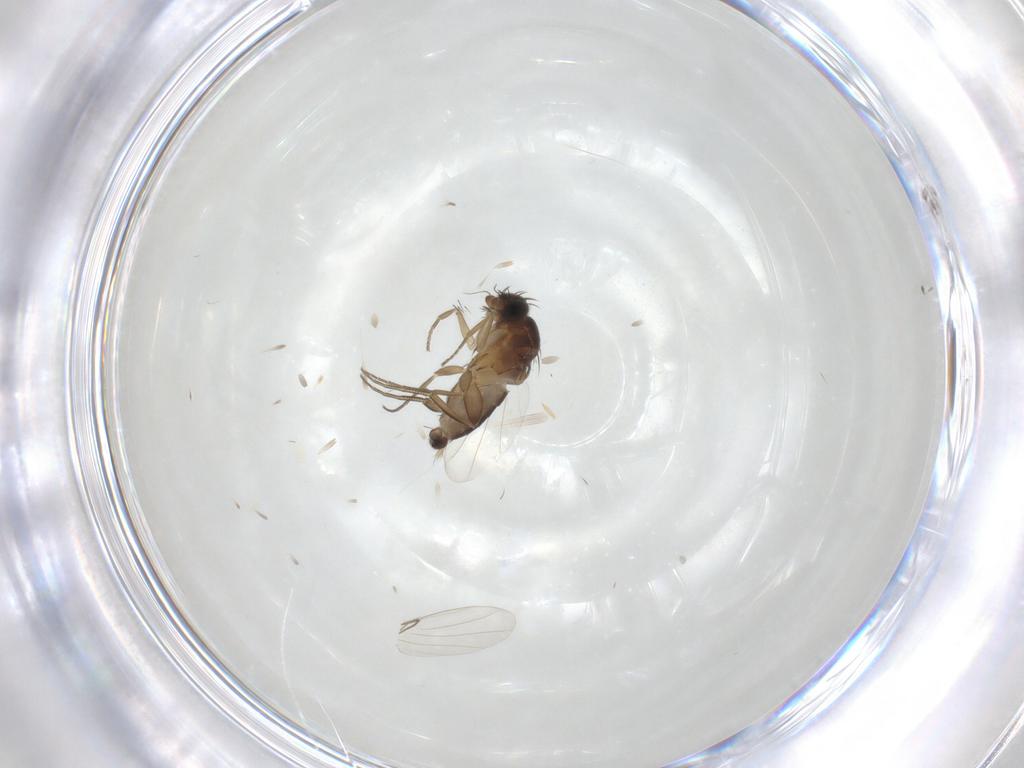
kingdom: Animalia
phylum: Arthropoda
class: Insecta
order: Diptera
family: Phoridae
